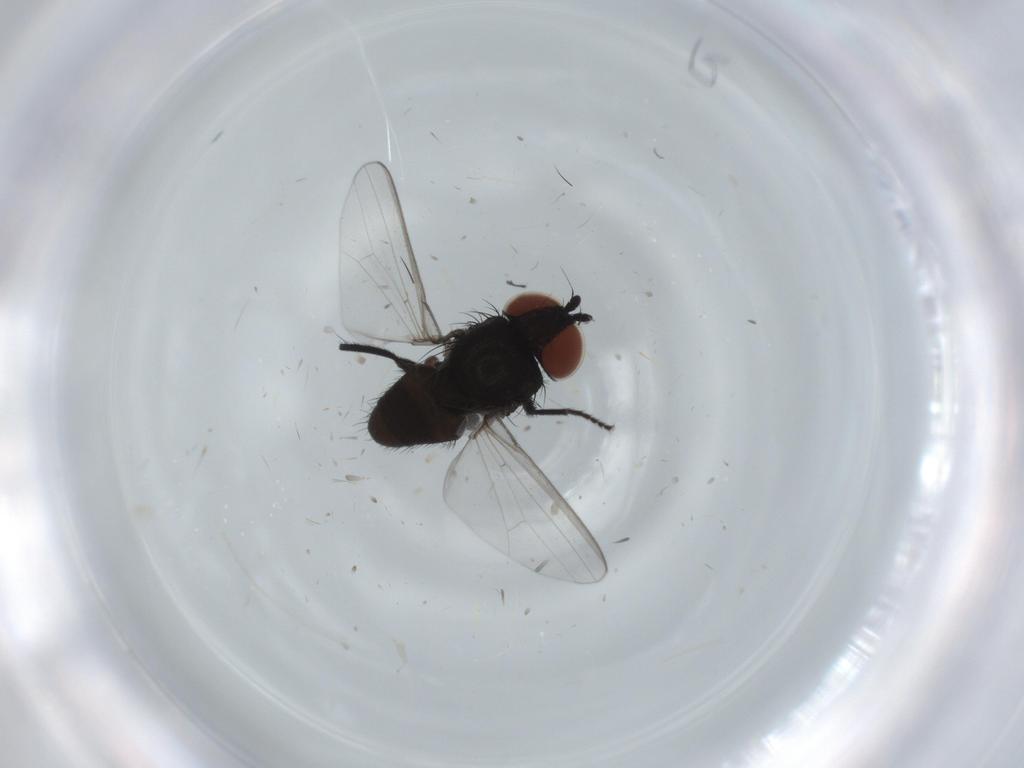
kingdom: Animalia
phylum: Arthropoda
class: Insecta
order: Diptera
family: Milichiidae
